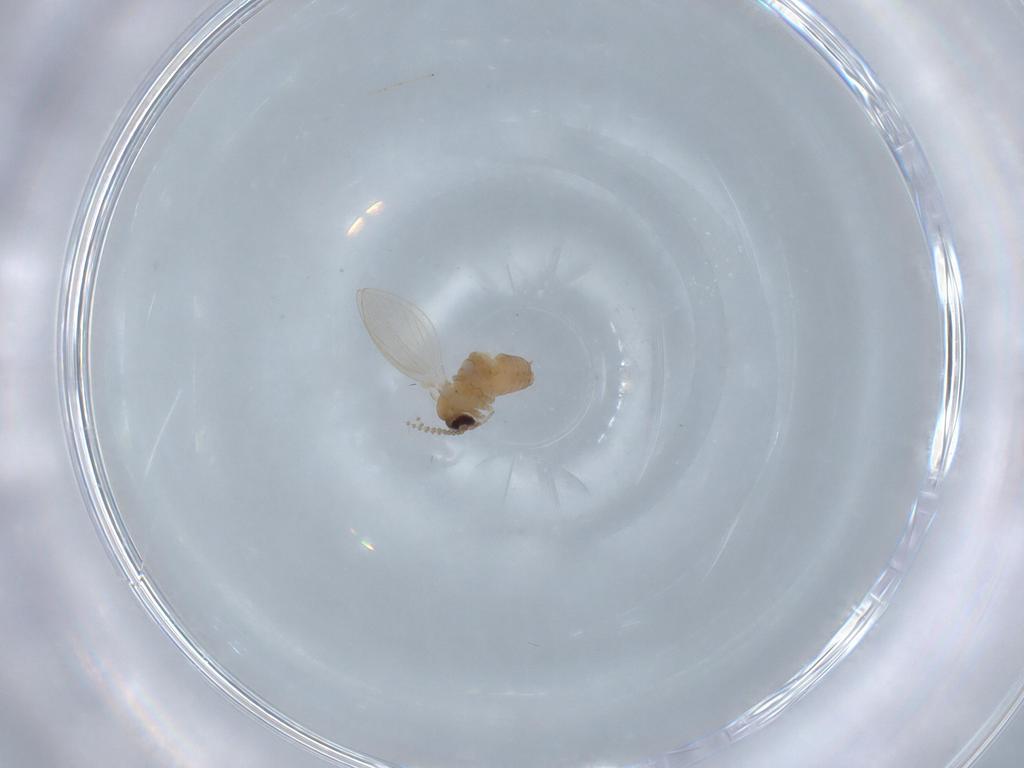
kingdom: Animalia
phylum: Arthropoda
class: Insecta
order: Diptera
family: Psychodidae
